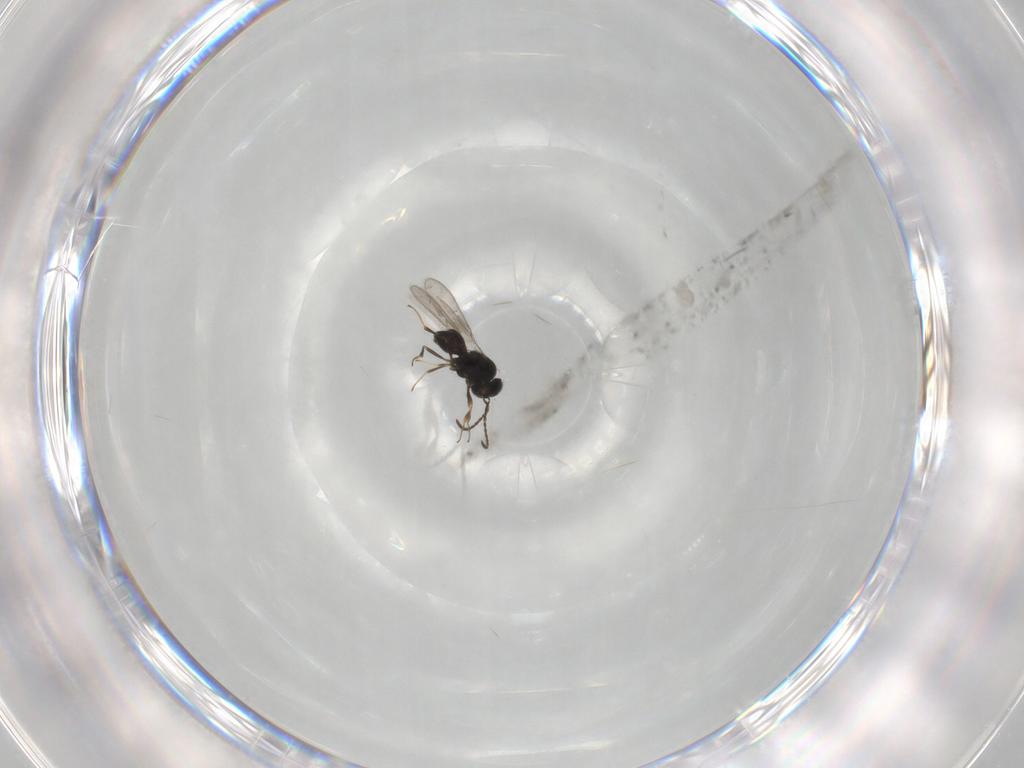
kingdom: Animalia
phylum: Arthropoda
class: Insecta
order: Hymenoptera
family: Scelionidae
